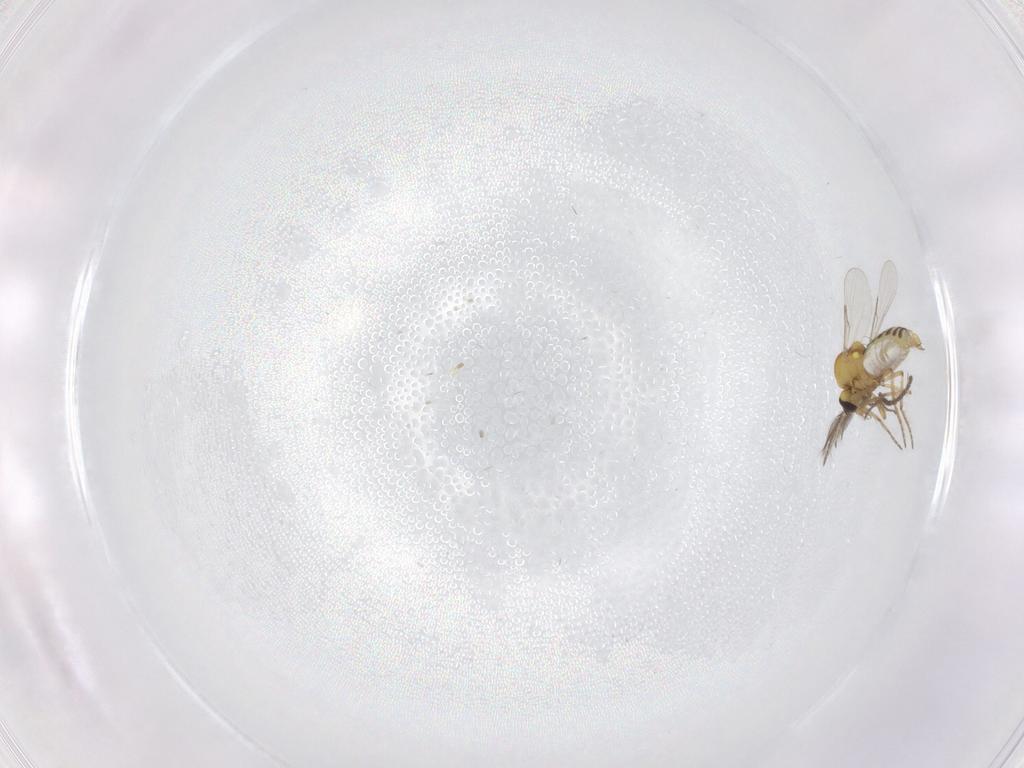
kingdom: Animalia
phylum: Arthropoda
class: Insecta
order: Diptera
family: Ceratopogonidae
